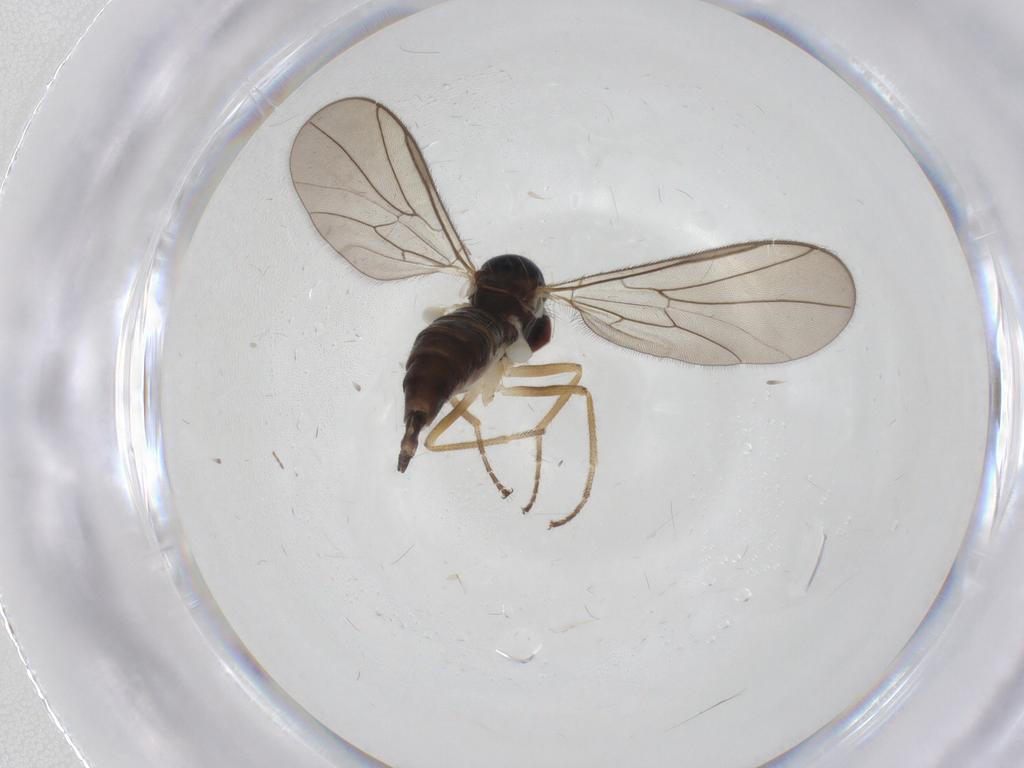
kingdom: Animalia
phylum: Arthropoda
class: Insecta
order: Diptera
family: Hybotidae
